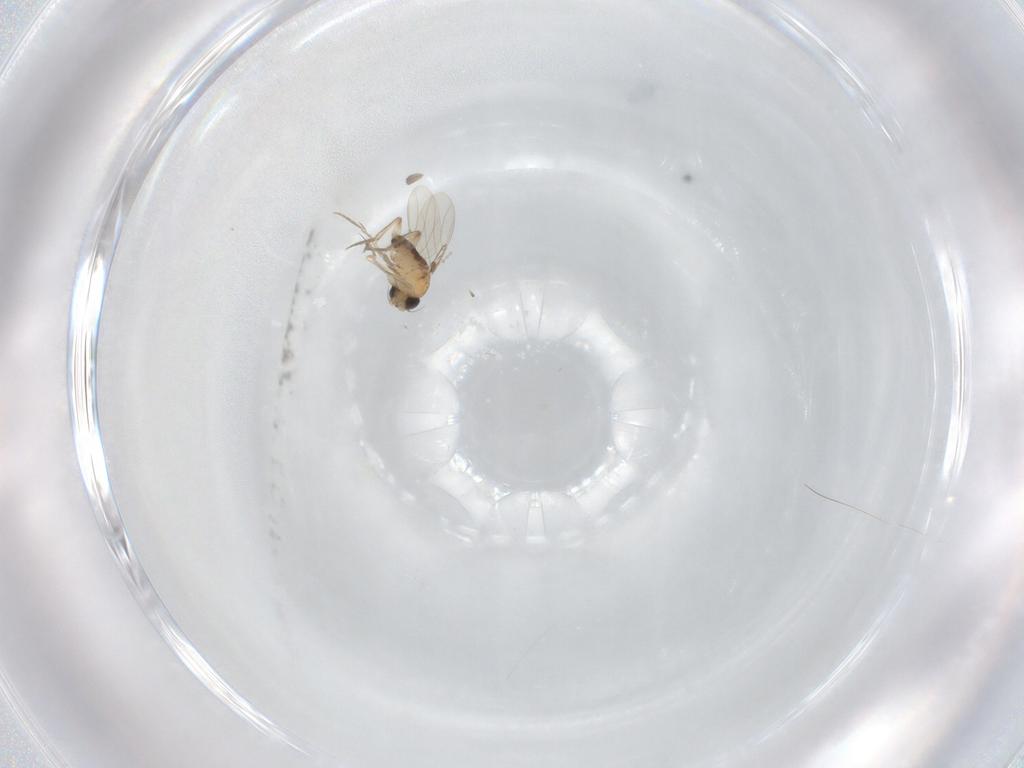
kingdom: Animalia
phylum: Arthropoda
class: Insecta
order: Diptera
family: Phoridae
